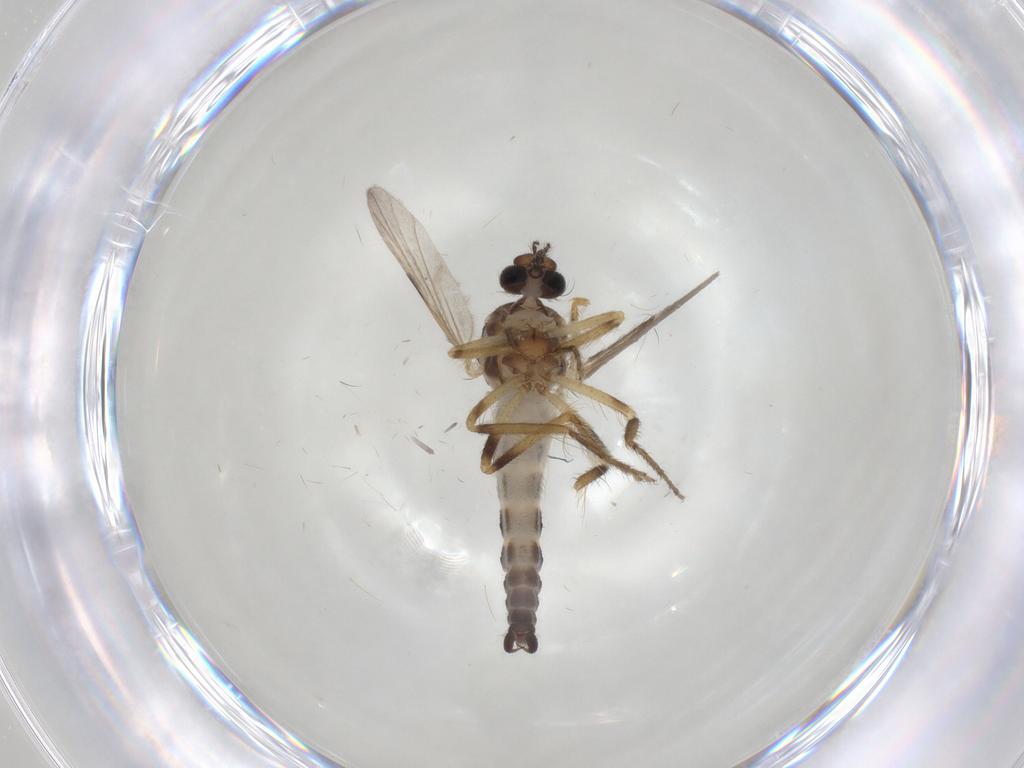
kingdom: Animalia
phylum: Arthropoda
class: Insecta
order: Diptera
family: Ceratopogonidae
